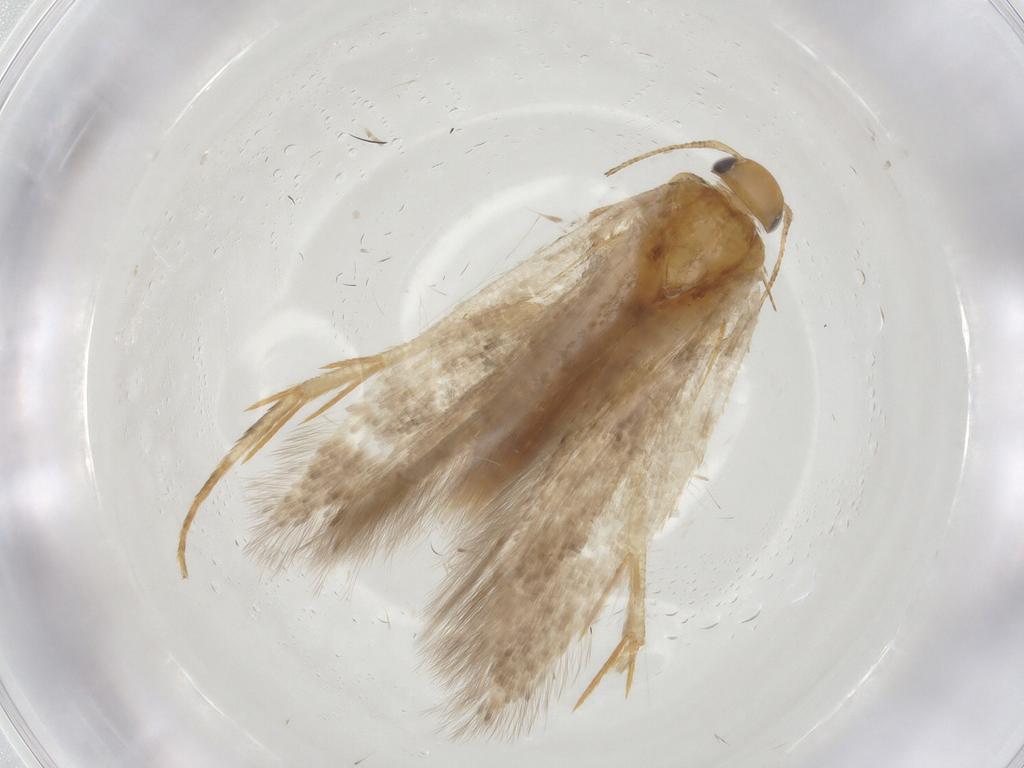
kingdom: Animalia
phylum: Arthropoda
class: Insecta
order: Lepidoptera
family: Gelechiidae
